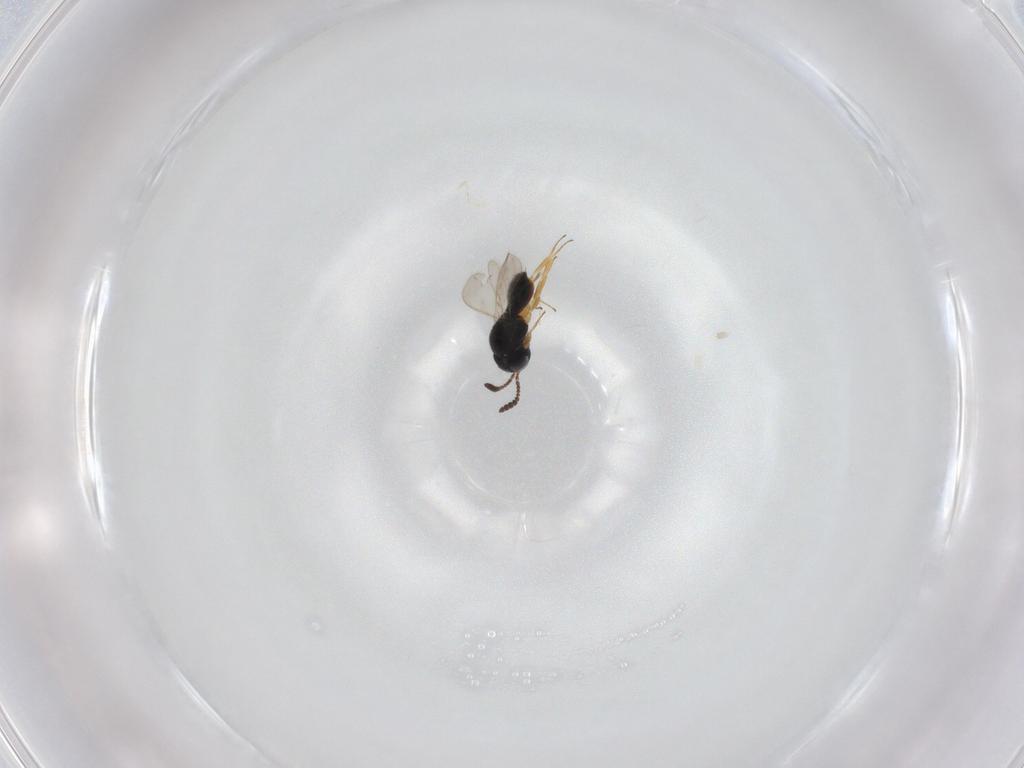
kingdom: Animalia
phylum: Arthropoda
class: Insecta
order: Hymenoptera
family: Scelionidae
